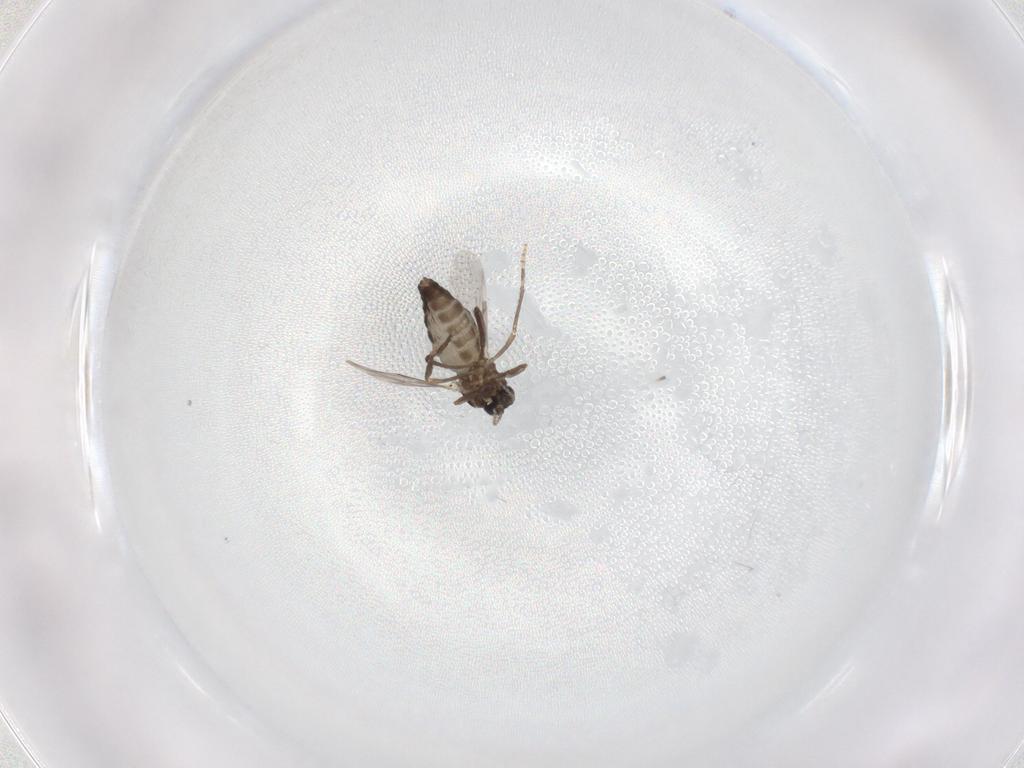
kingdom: Animalia
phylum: Arthropoda
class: Insecta
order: Diptera
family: Ceratopogonidae
